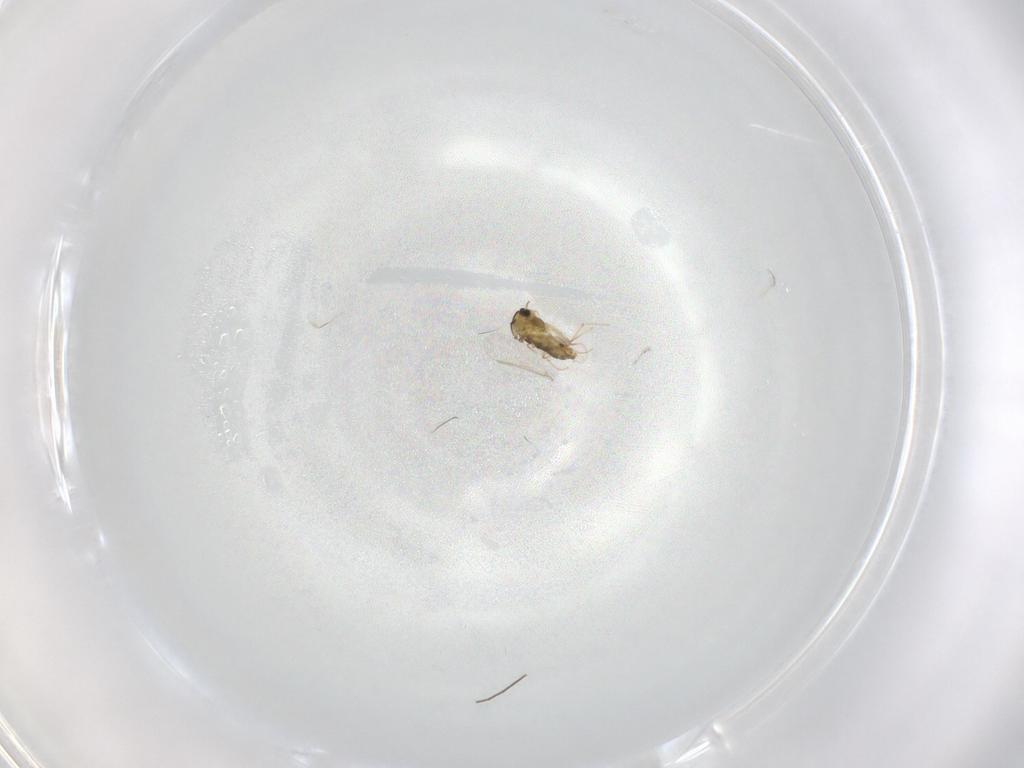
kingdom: Animalia
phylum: Arthropoda
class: Insecta
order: Diptera
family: Chironomidae
